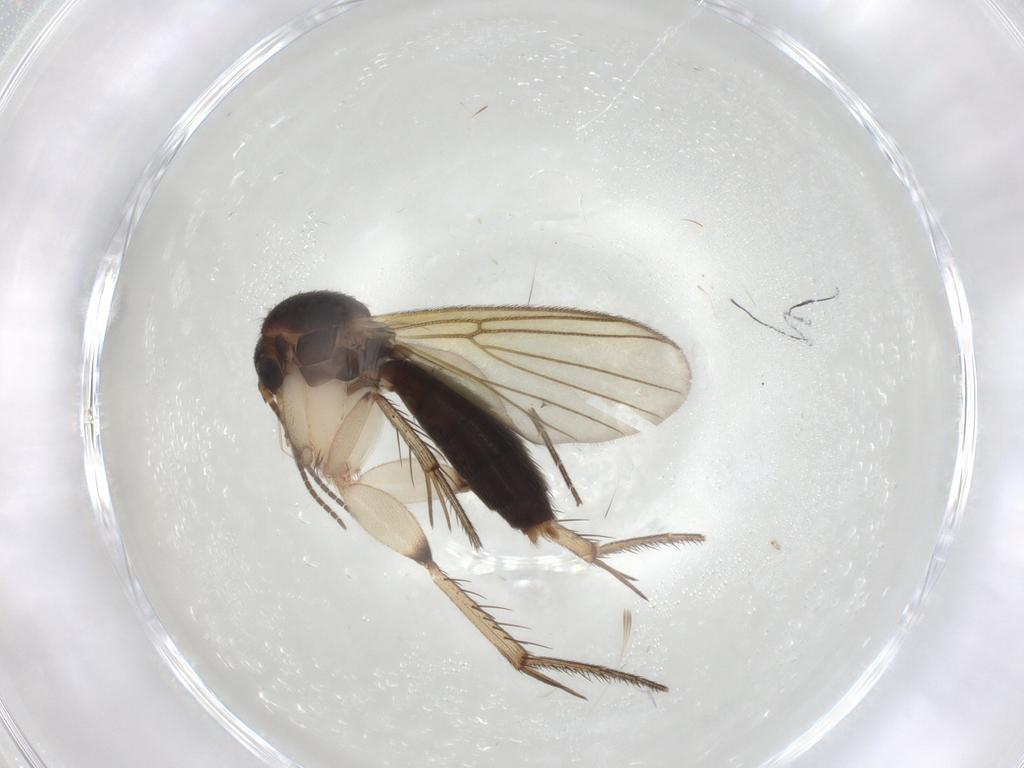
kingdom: Animalia
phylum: Arthropoda
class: Insecta
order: Diptera
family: Mycetophilidae
